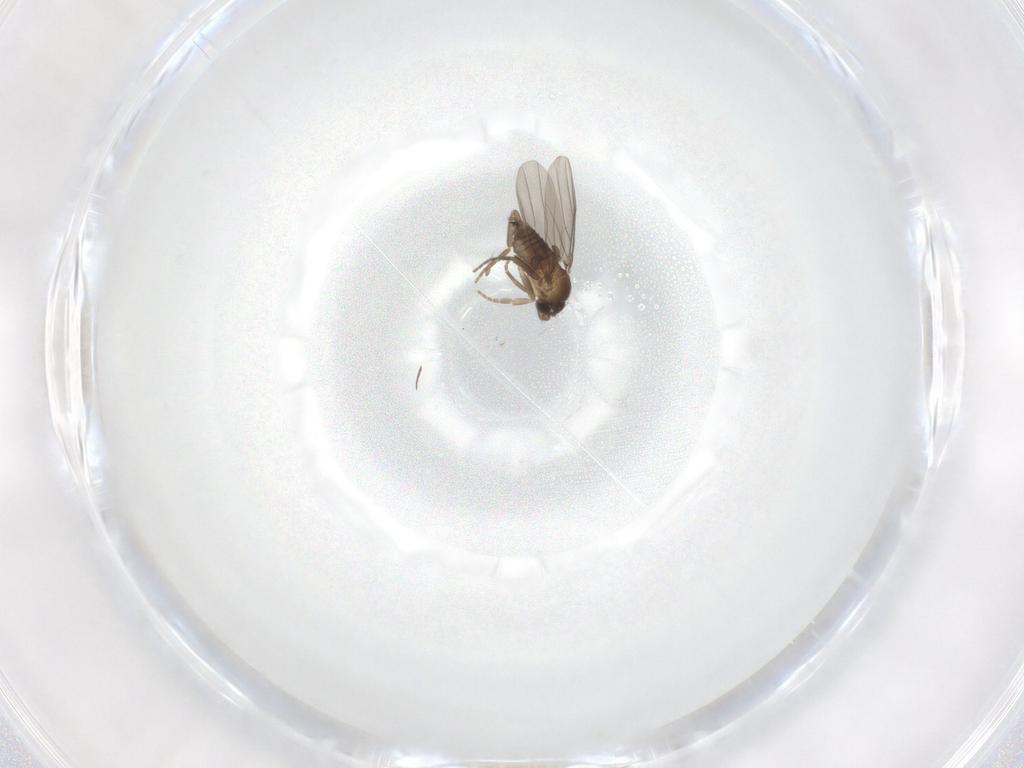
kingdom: Animalia
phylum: Arthropoda
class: Insecta
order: Diptera
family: Phoridae
